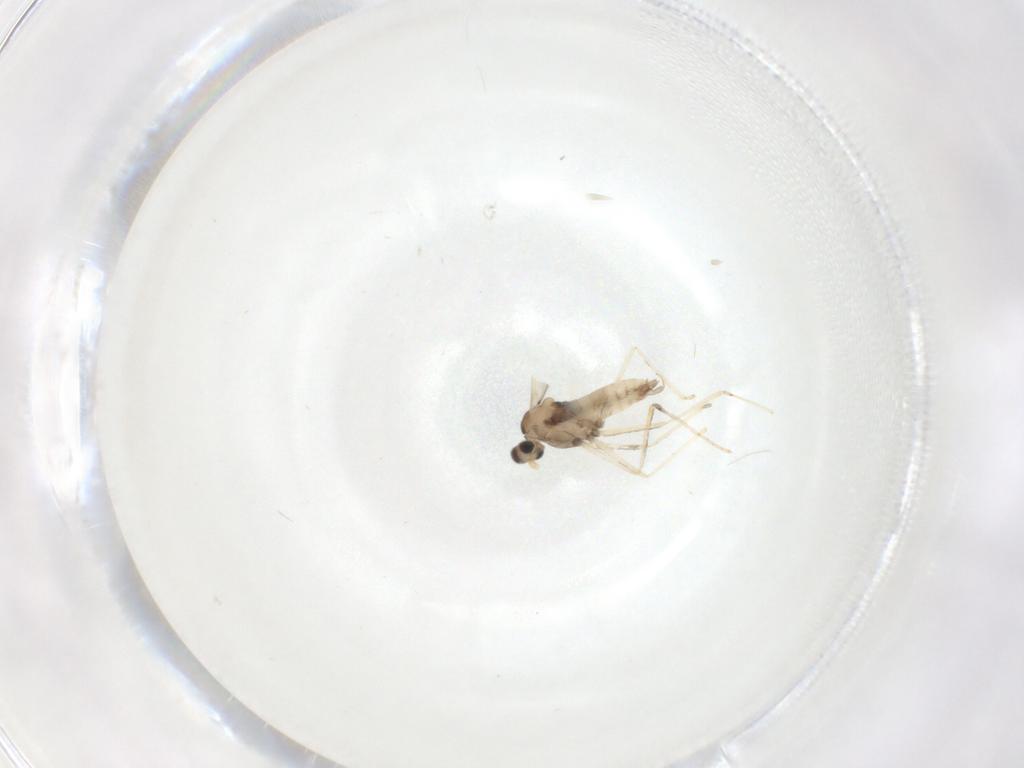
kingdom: Animalia
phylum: Arthropoda
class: Insecta
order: Diptera
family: Cecidomyiidae
